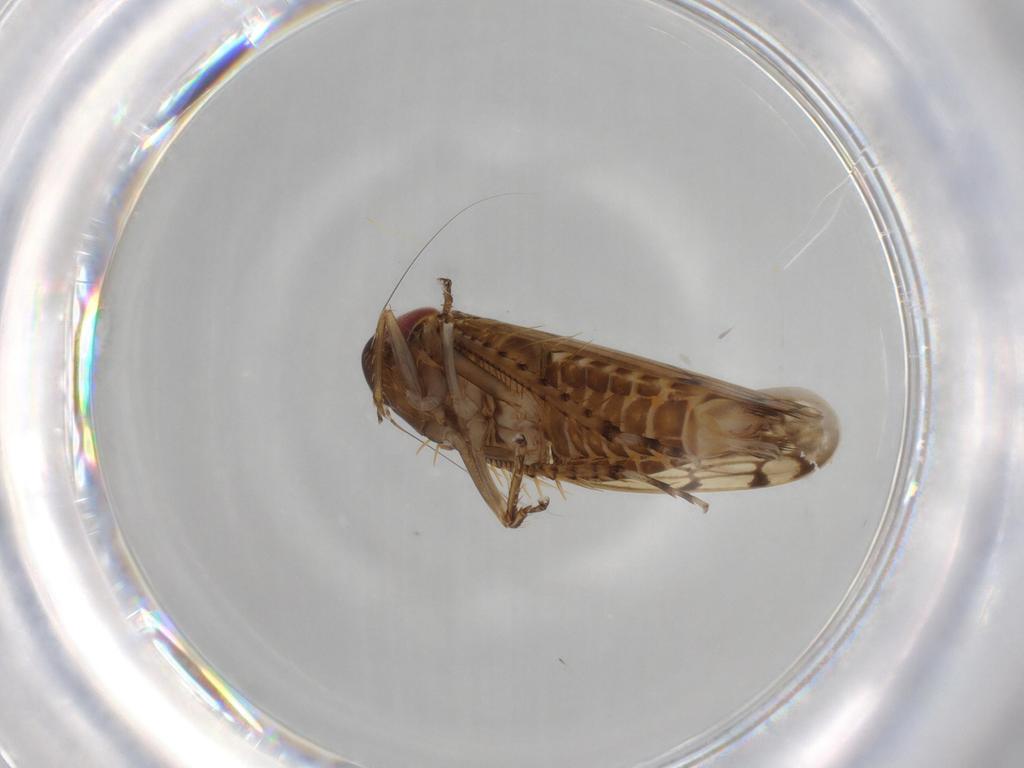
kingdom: Animalia
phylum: Arthropoda
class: Insecta
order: Hemiptera
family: Cicadellidae
